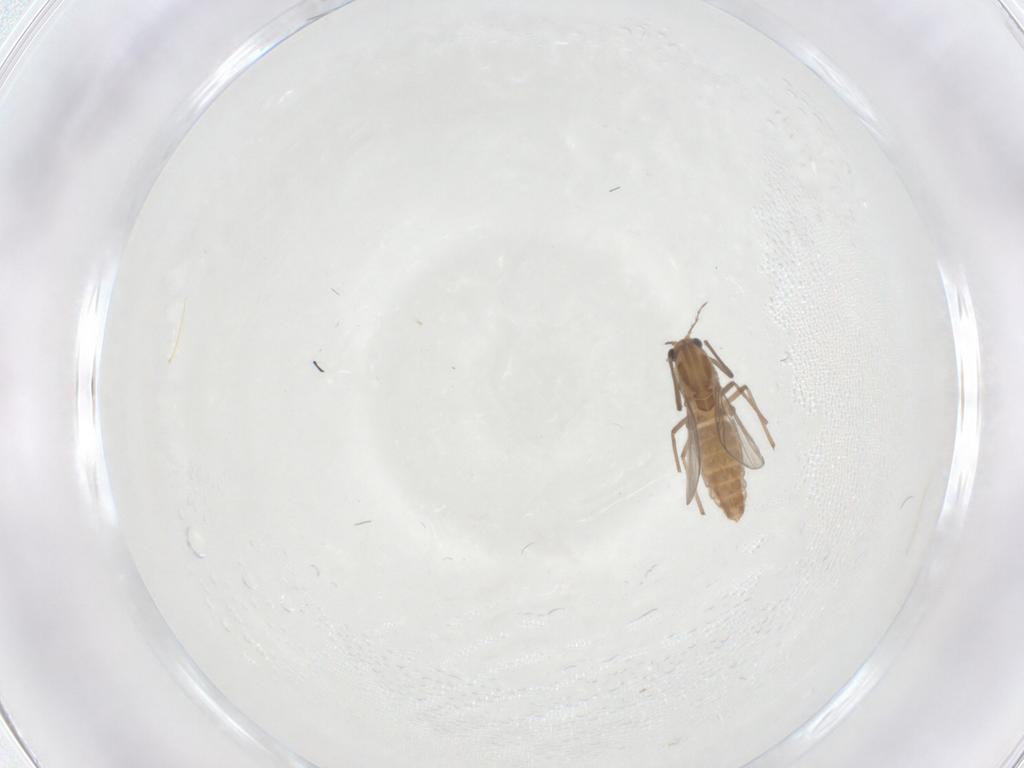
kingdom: Animalia
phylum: Arthropoda
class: Insecta
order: Diptera
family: Chironomidae
